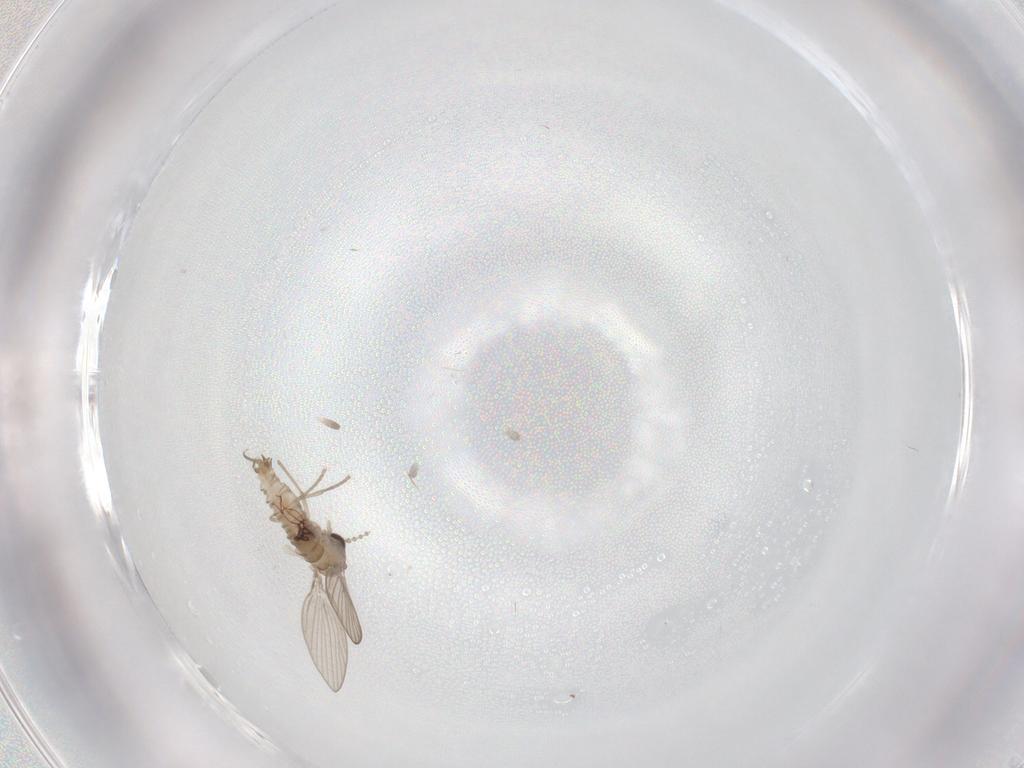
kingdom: Animalia
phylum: Arthropoda
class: Insecta
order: Diptera
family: Psychodidae
